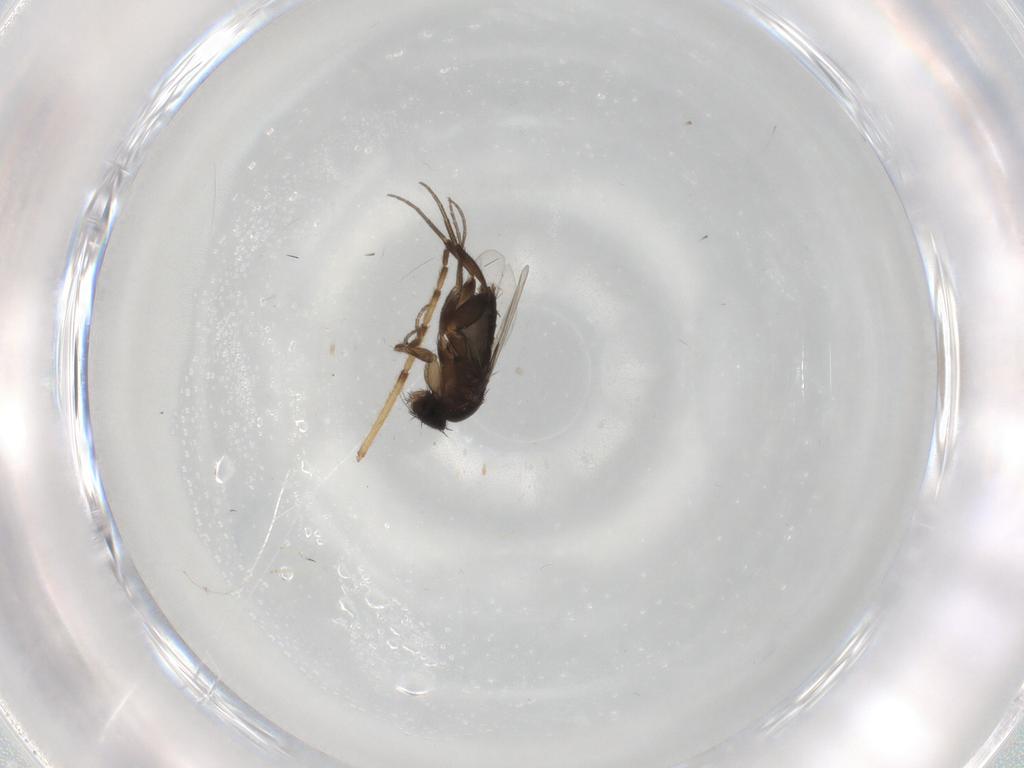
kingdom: Animalia
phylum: Arthropoda
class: Insecta
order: Diptera
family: Phoridae
